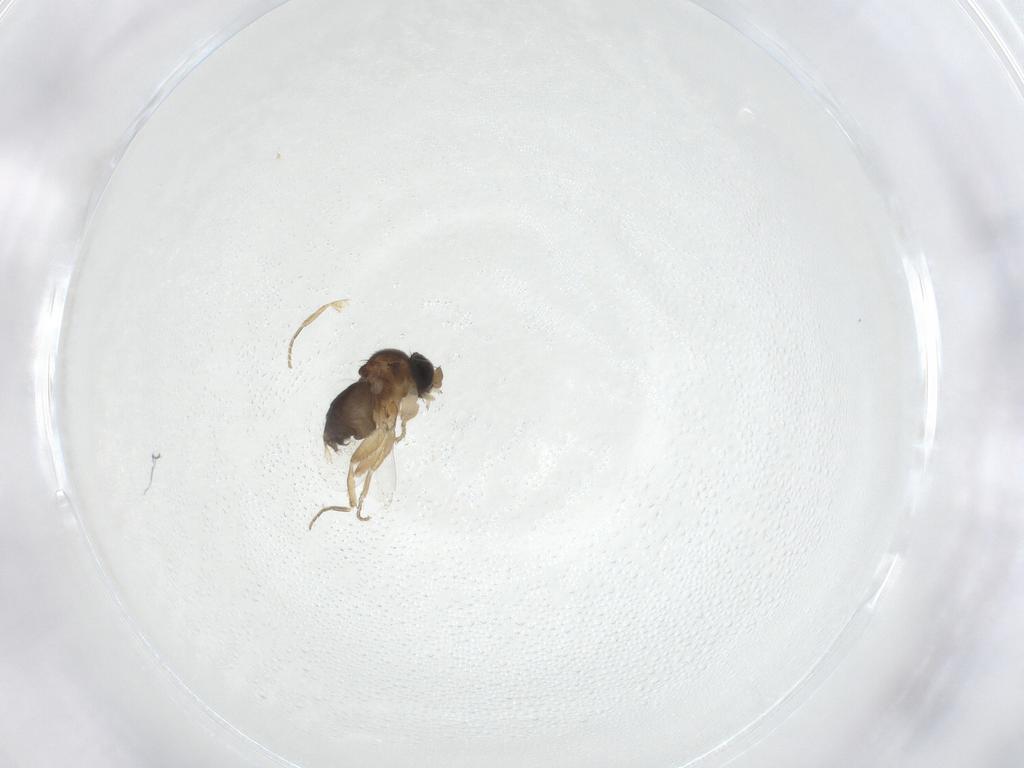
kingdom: Animalia
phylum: Arthropoda
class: Insecta
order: Diptera
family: Phoridae
